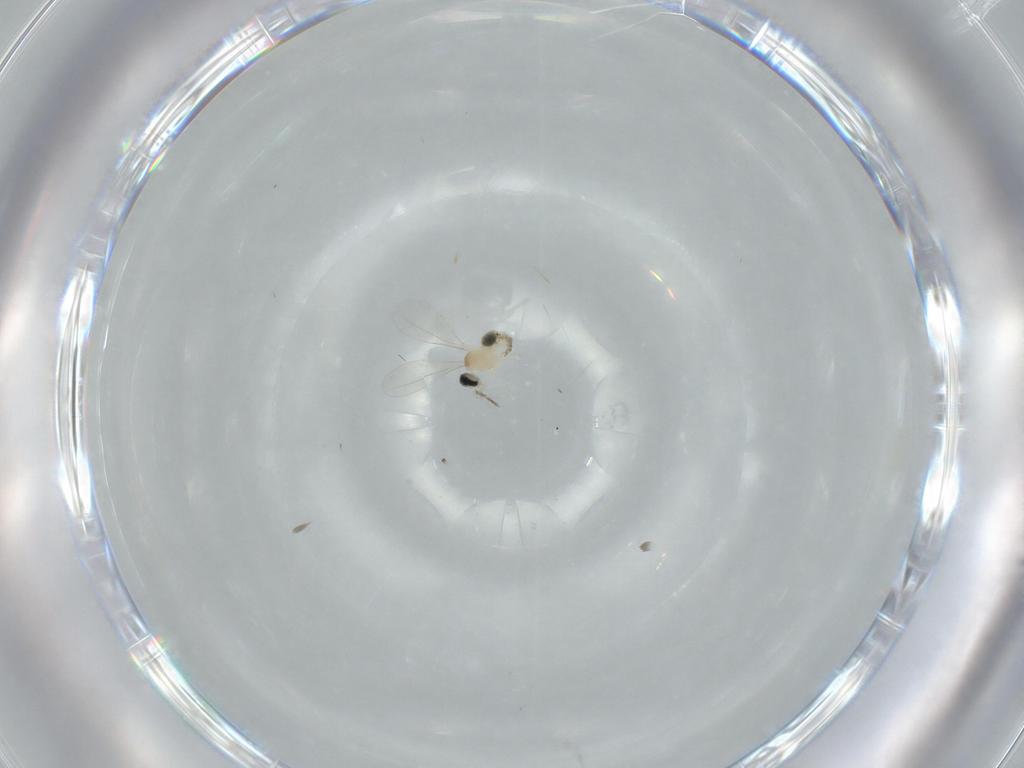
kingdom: Animalia
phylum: Arthropoda
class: Insecta
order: Diptera
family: Cecidomyiidae
